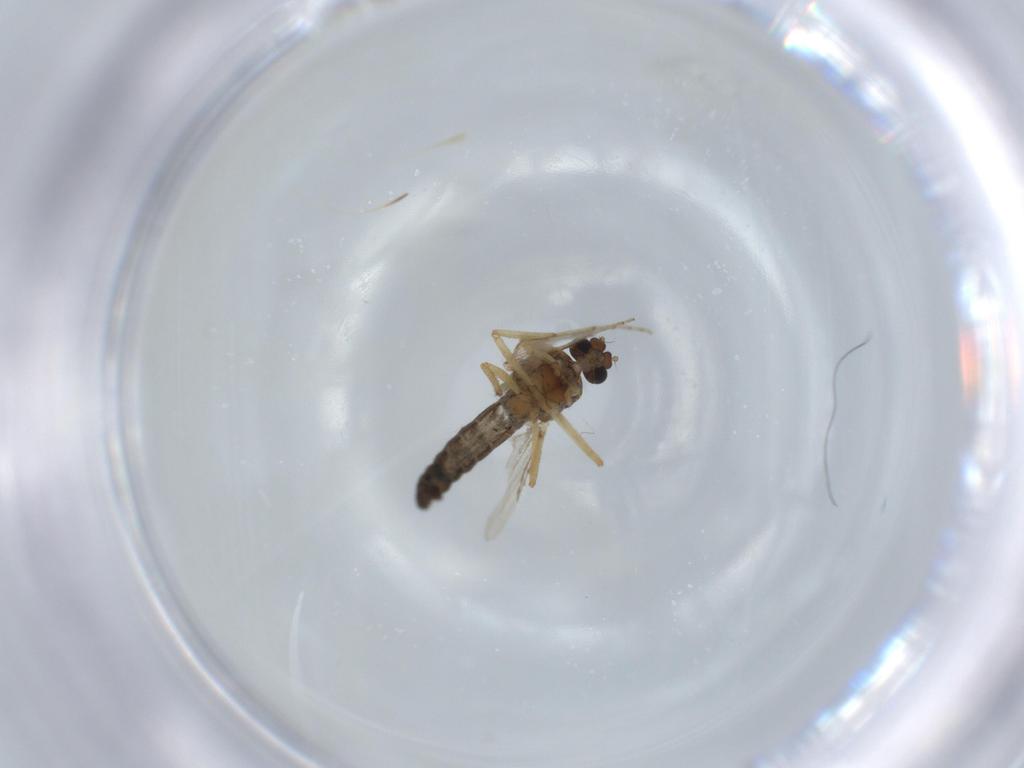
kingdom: Animalia
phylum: Arthropoda
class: Insecta
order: Diptera
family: Ceratopogonidae
